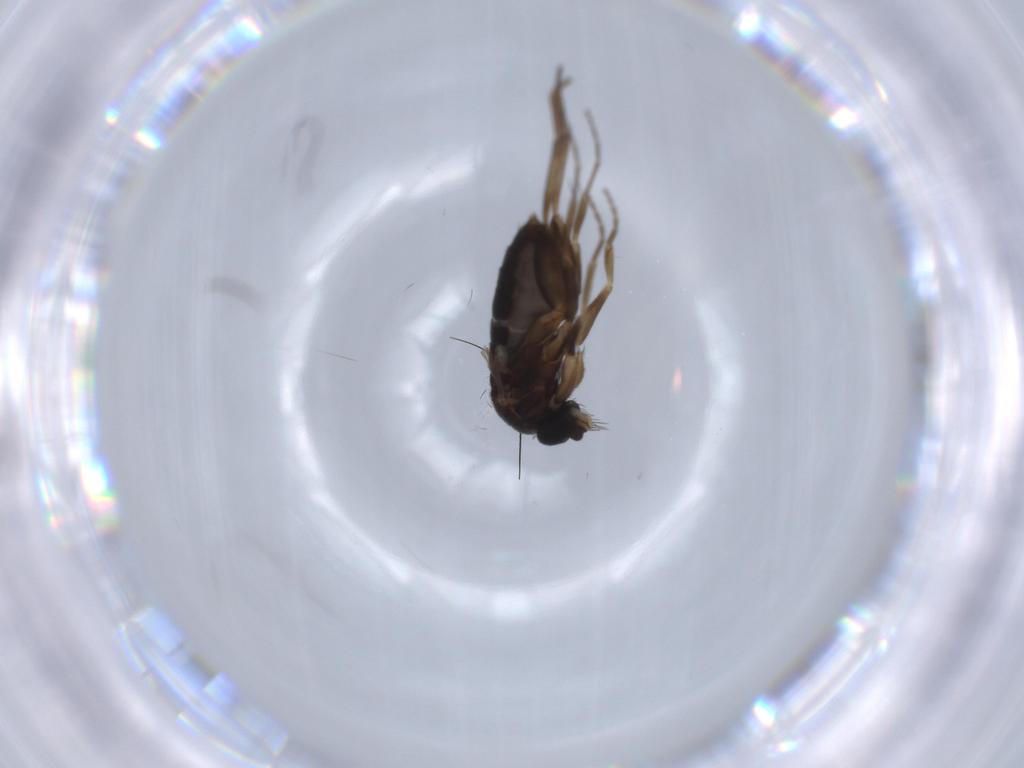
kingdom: Animalia
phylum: Arthropoda
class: Insecta
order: Diptera
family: Phoridae
